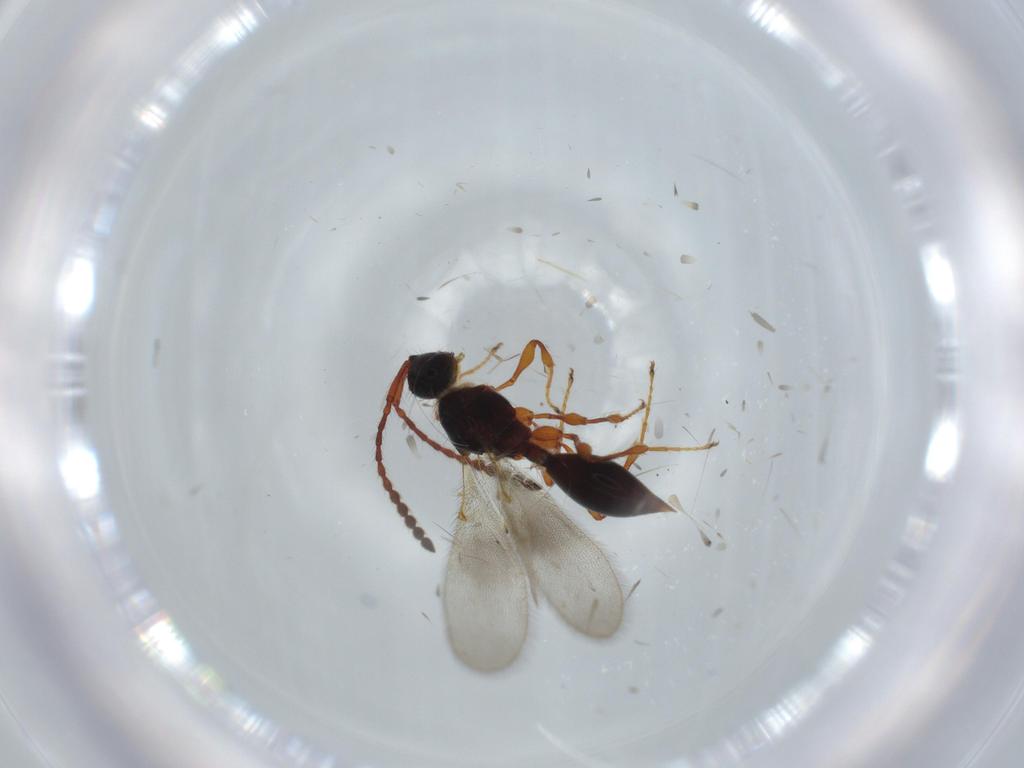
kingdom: Animalia
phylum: Arthropoda
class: Insecta
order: Hymenoptera
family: Diapriidae
